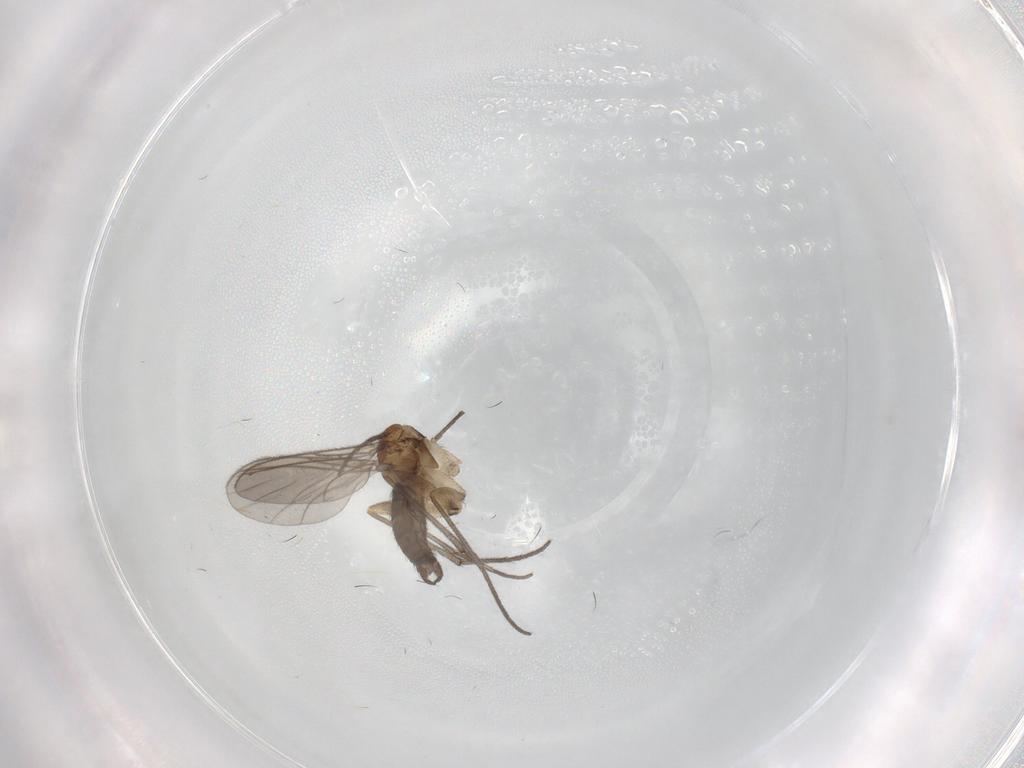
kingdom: Animalia
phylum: Arthropoda
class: Insecta
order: Diptera
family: Sciaridae
